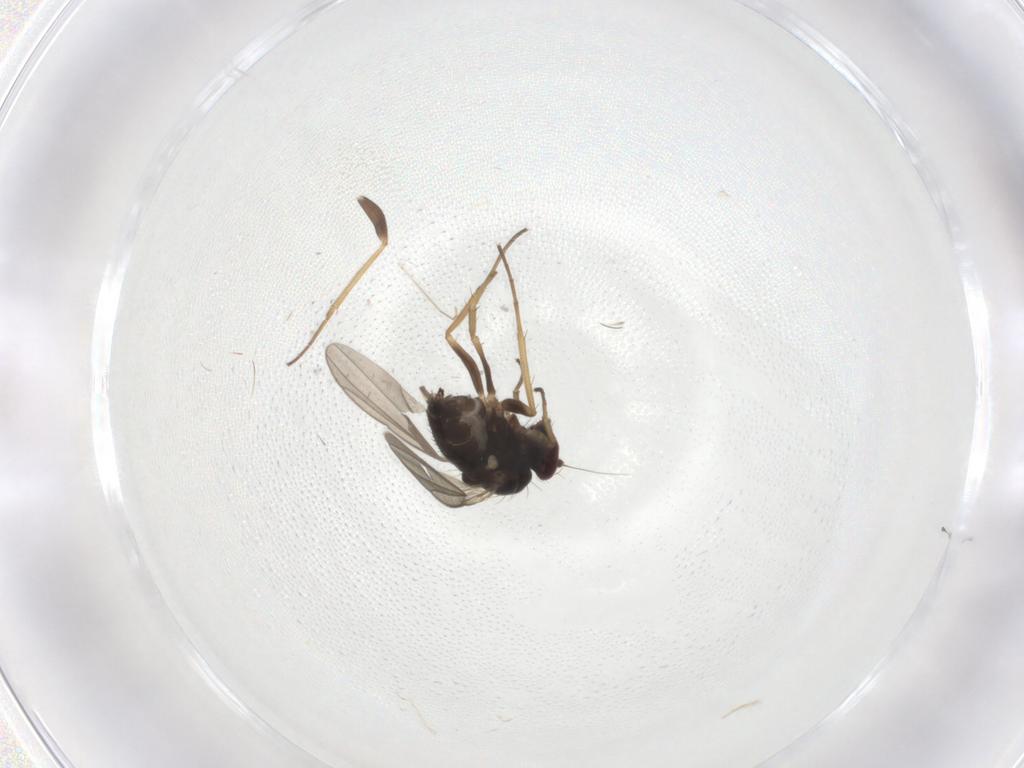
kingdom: Animalia
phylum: Arthropoda
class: Insecta
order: Diptera
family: Dolichopodidae
